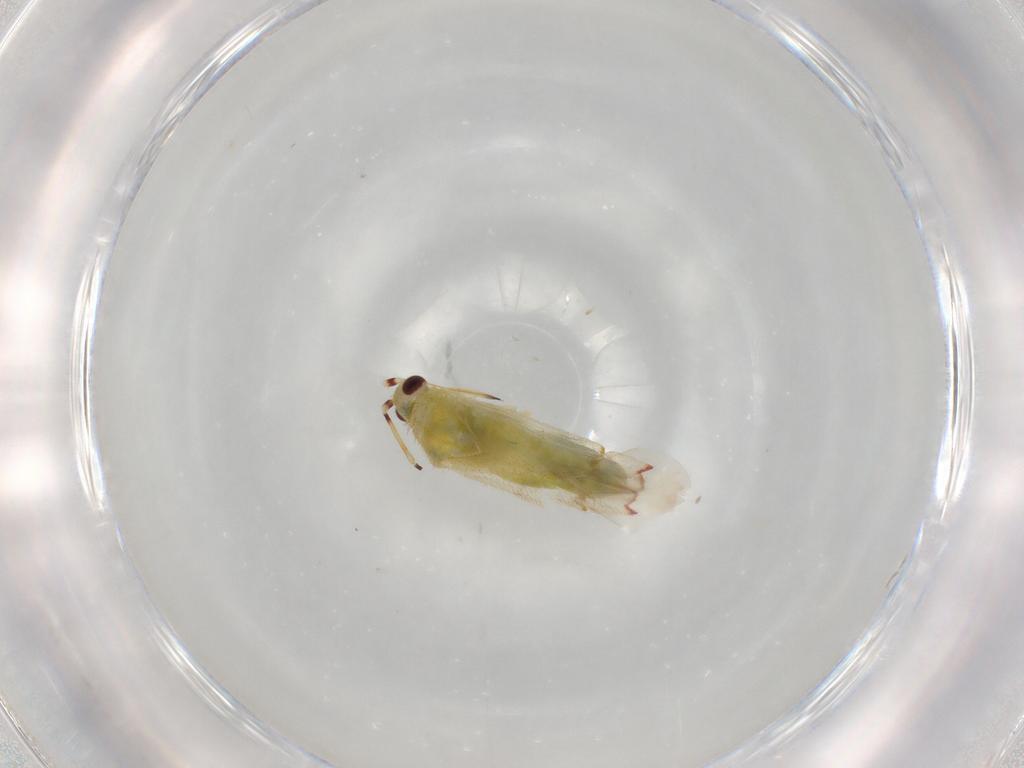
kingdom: Animalia
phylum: Arthropoda
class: Insecta
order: Hemiptera
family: Miridae
